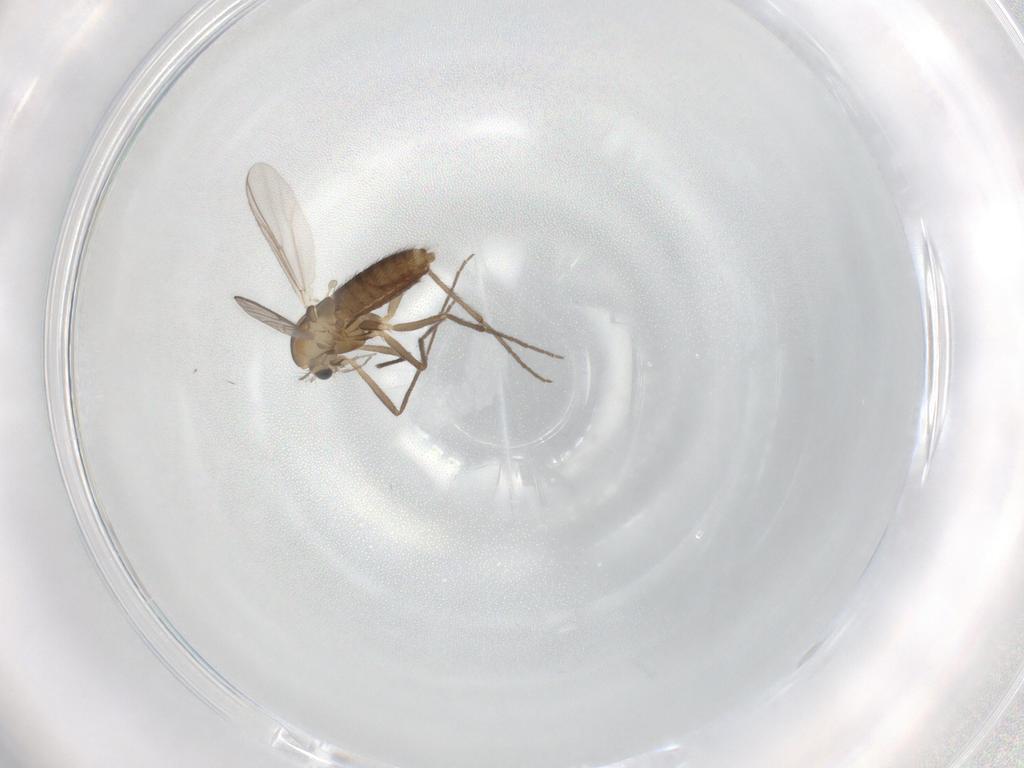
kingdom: Animalia
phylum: Arthropoda
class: Insecta
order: Diptera
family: Chironomidae
